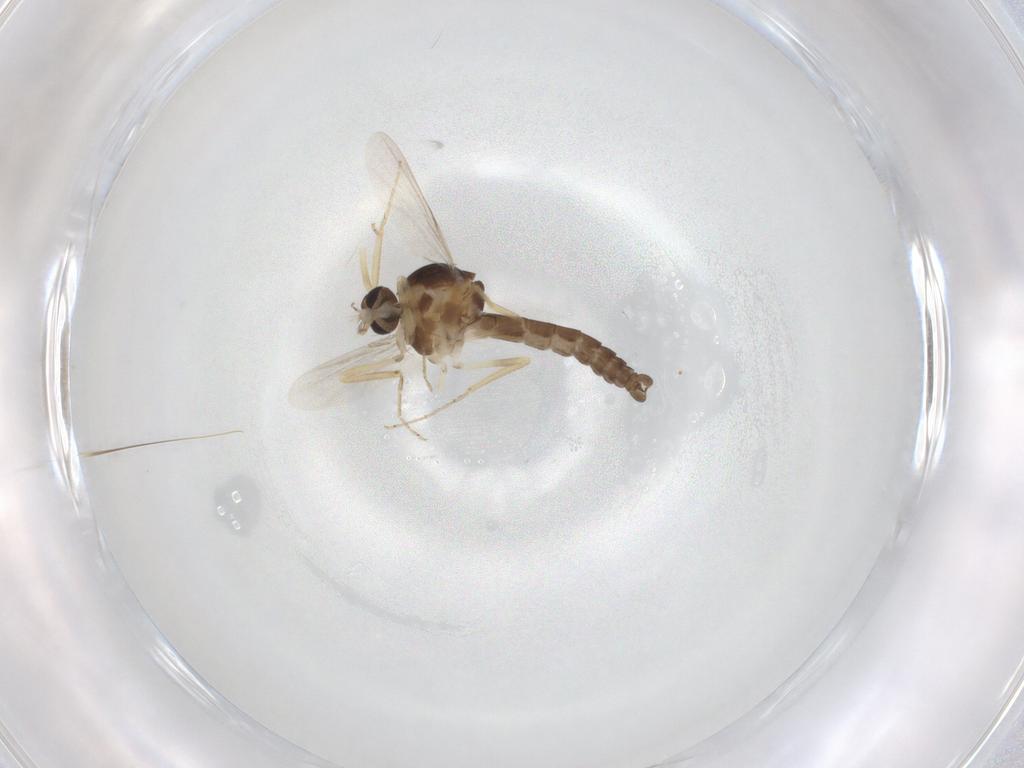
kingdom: Animalia
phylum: Arthropoda
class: Insecta
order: Diptera
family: Ceratopogonidae
